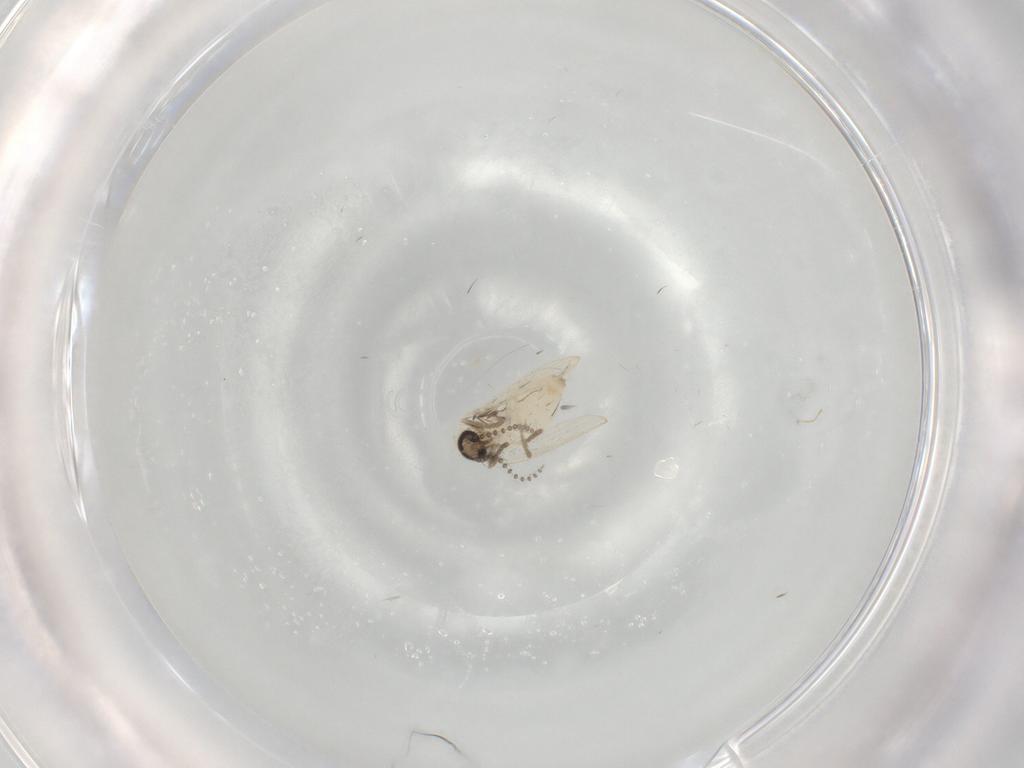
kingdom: Animalia
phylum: Arthropoda
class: Insecta
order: Diptera
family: Psychodidae
